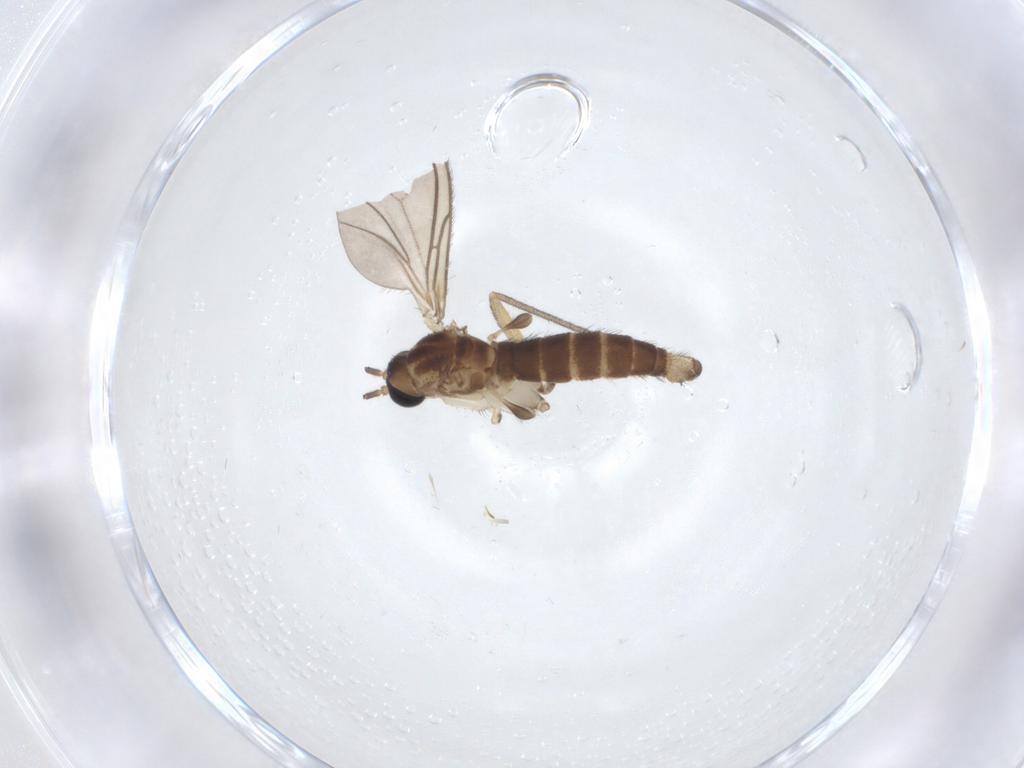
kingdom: Animalia
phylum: Arthropoda
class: Insecta
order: Diptera
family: Sciaridae
